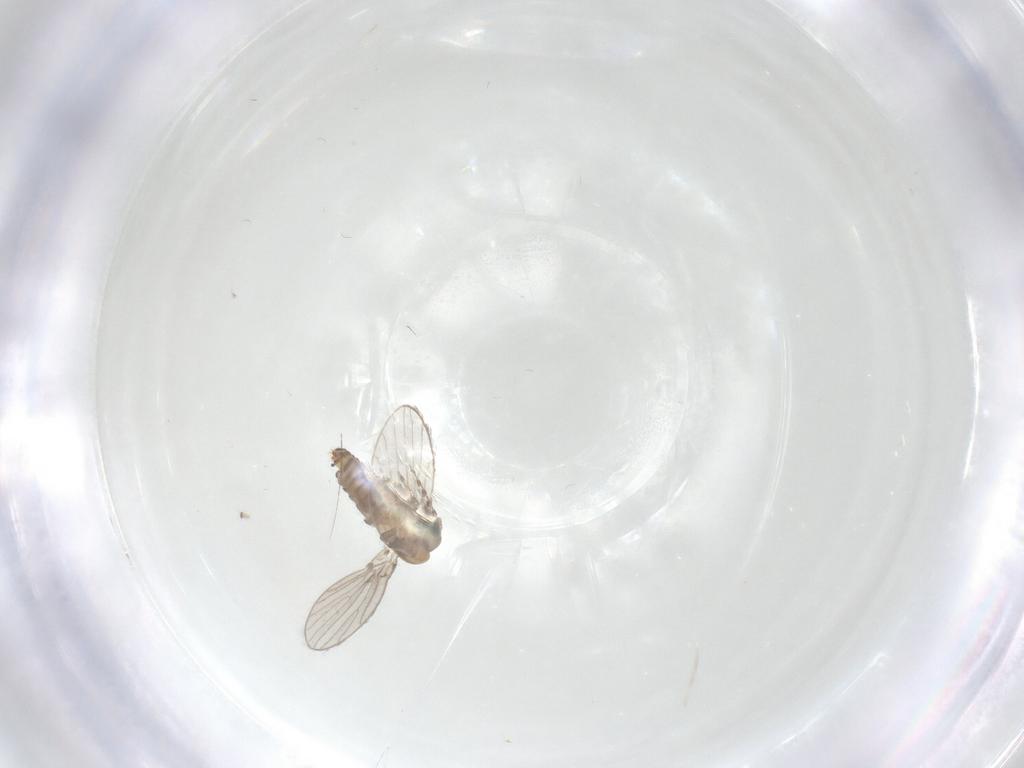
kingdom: Animalia
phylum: Arthropoda
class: Insecta
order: Diptera
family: Psychodidae
